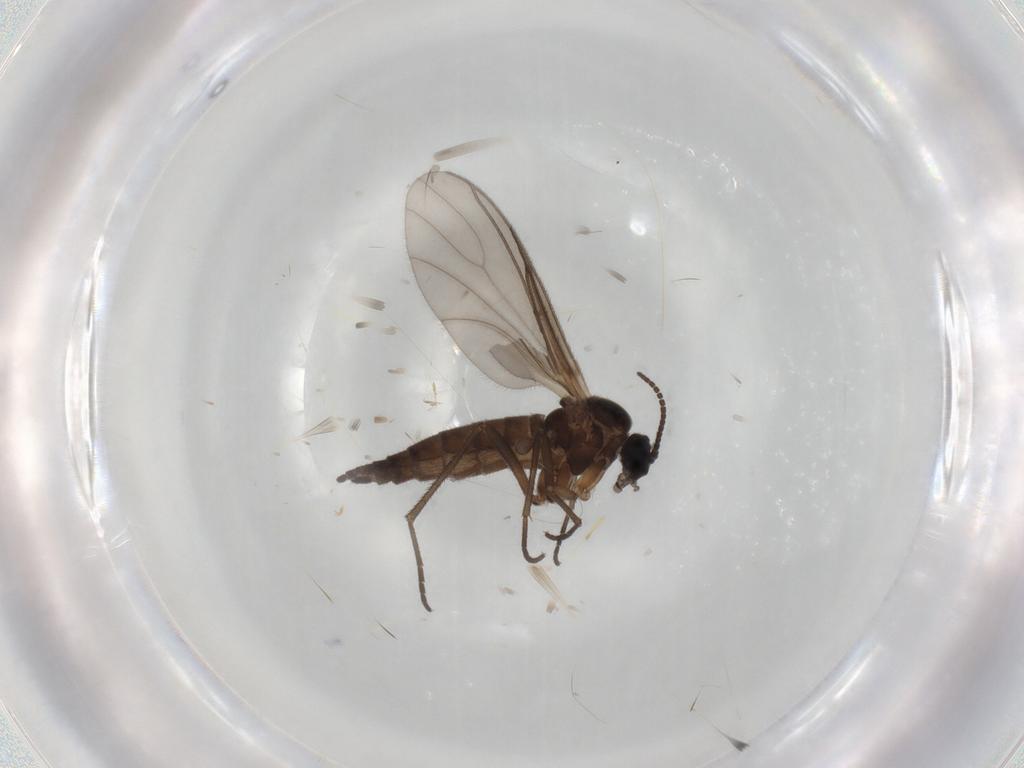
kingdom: Animalia
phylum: Arthropoda
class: Insecta
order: Diptera
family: Sciaridae
